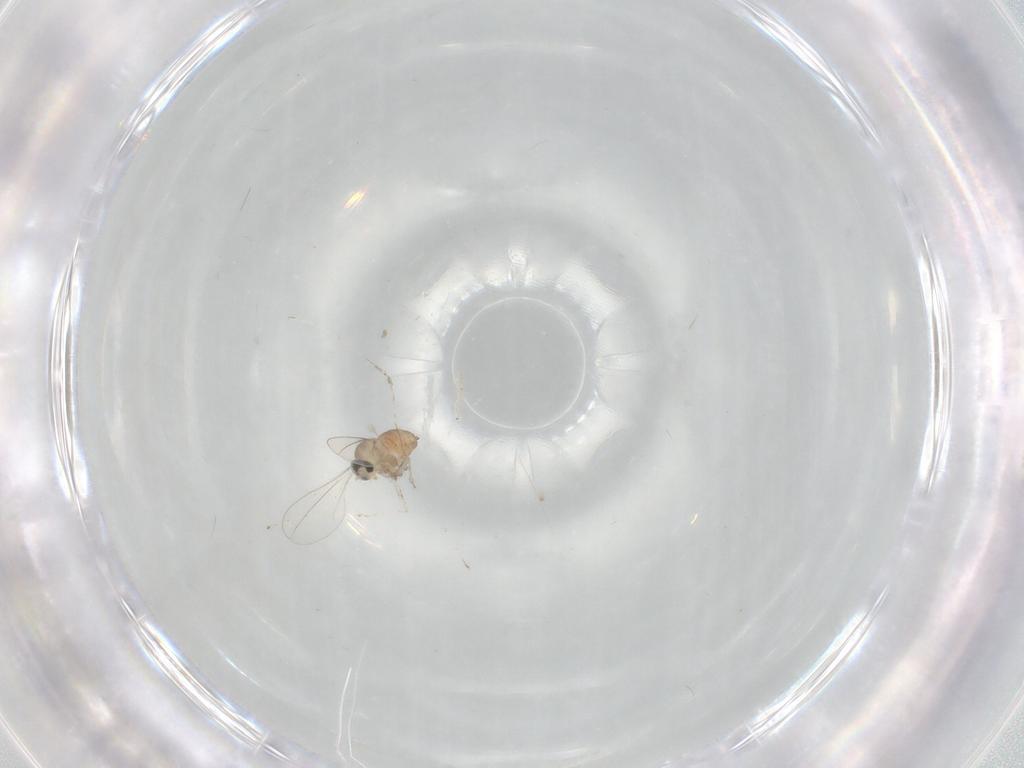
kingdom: Animalia
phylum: Arthropoda
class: Insecta
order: Diptera
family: Cecidomyiidae
